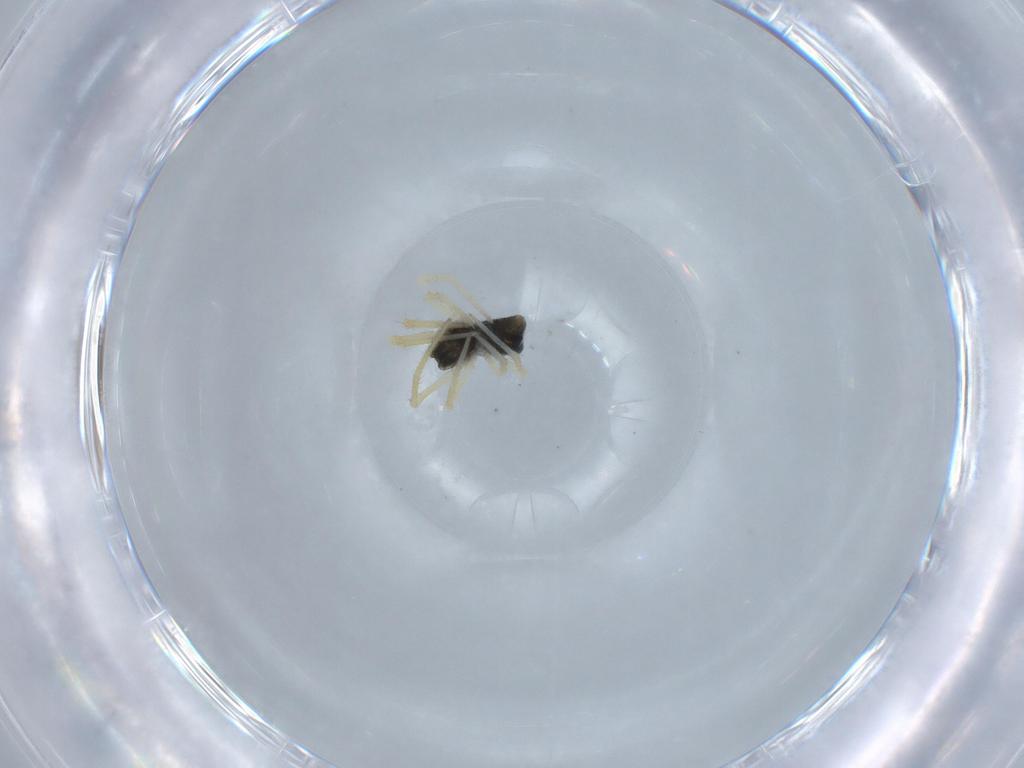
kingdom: Animalia
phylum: Arthropoda
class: Arachnida
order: Araneae
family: Theridiidae
